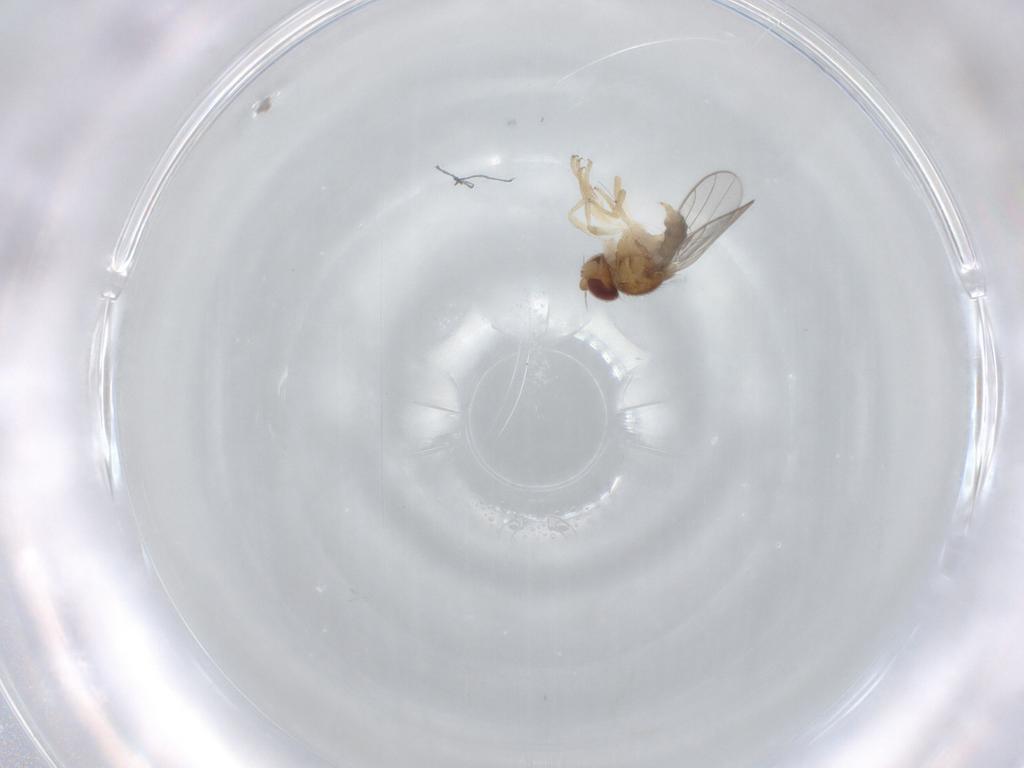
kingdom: Animalia
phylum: Arthropoda
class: Insecta
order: Diptera
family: Chloropidae
